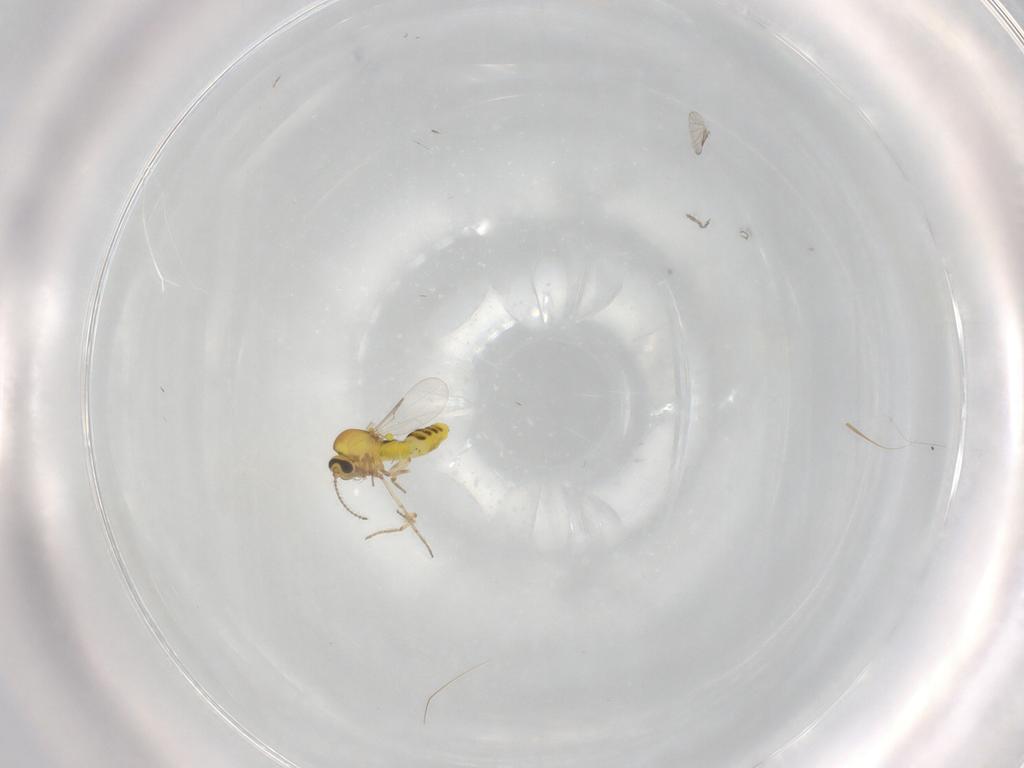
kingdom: Animalia
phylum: Arthropoda
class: Insecta
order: Diptera
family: Ceratopogonidae
